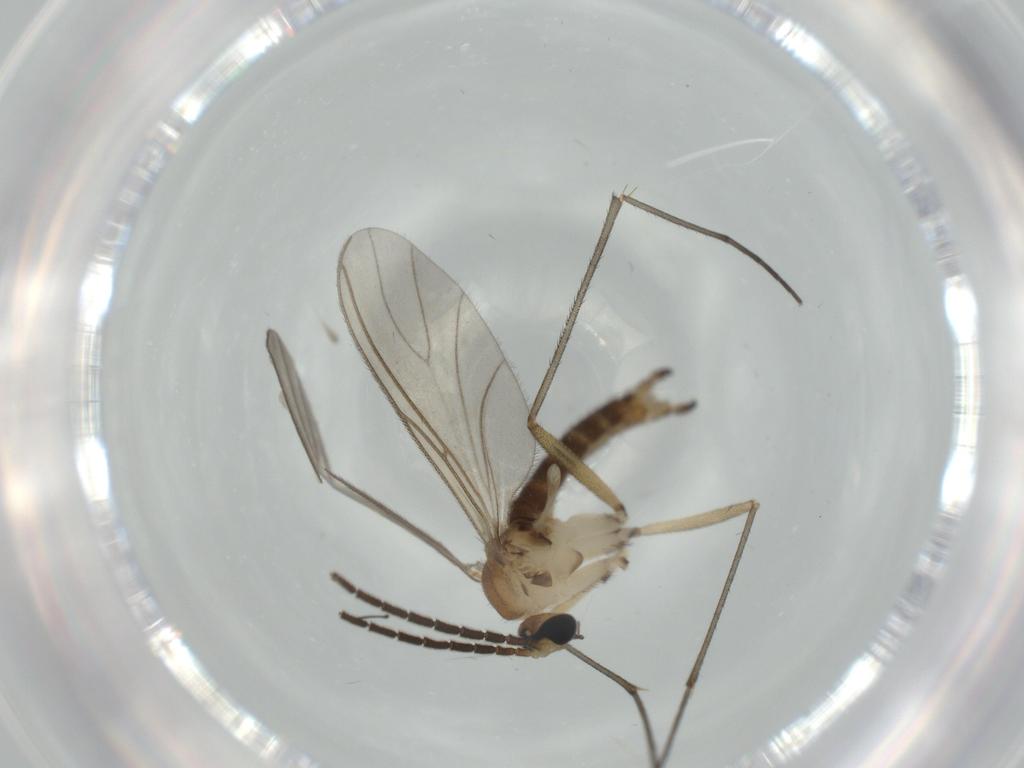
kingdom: Animalia
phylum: Arthropoda
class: Insecta
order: Diptera
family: Sciaridae
